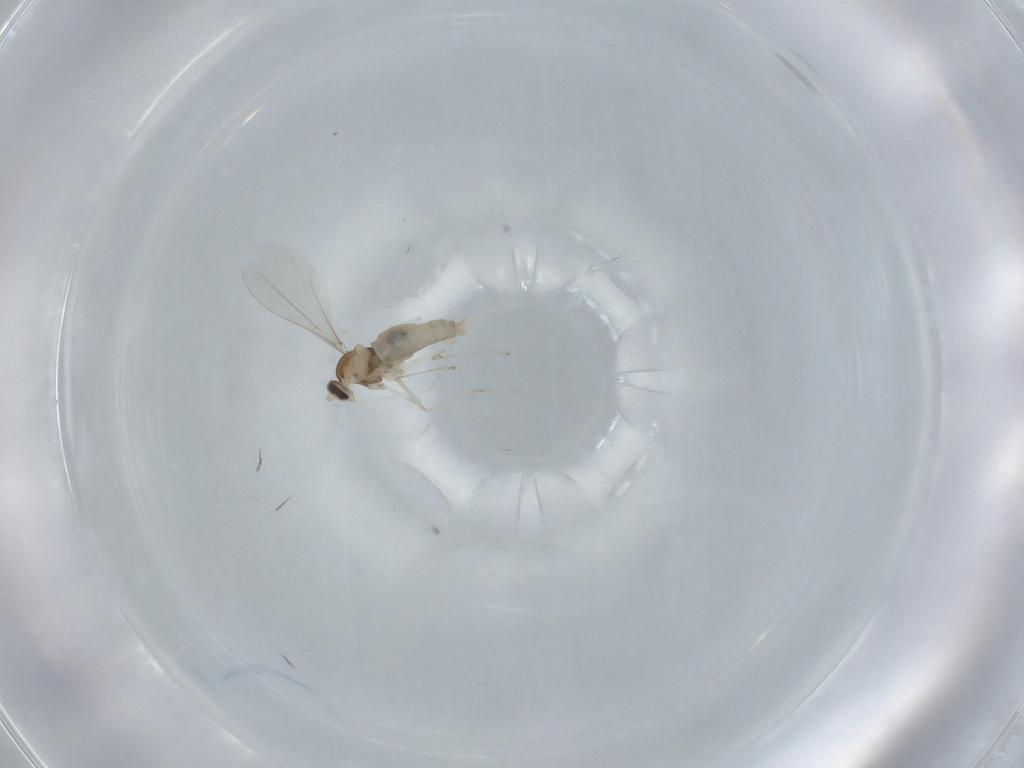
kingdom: Animalia
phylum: Arthropoda
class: Insecta
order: Diptera
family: Cecidomyiidae
